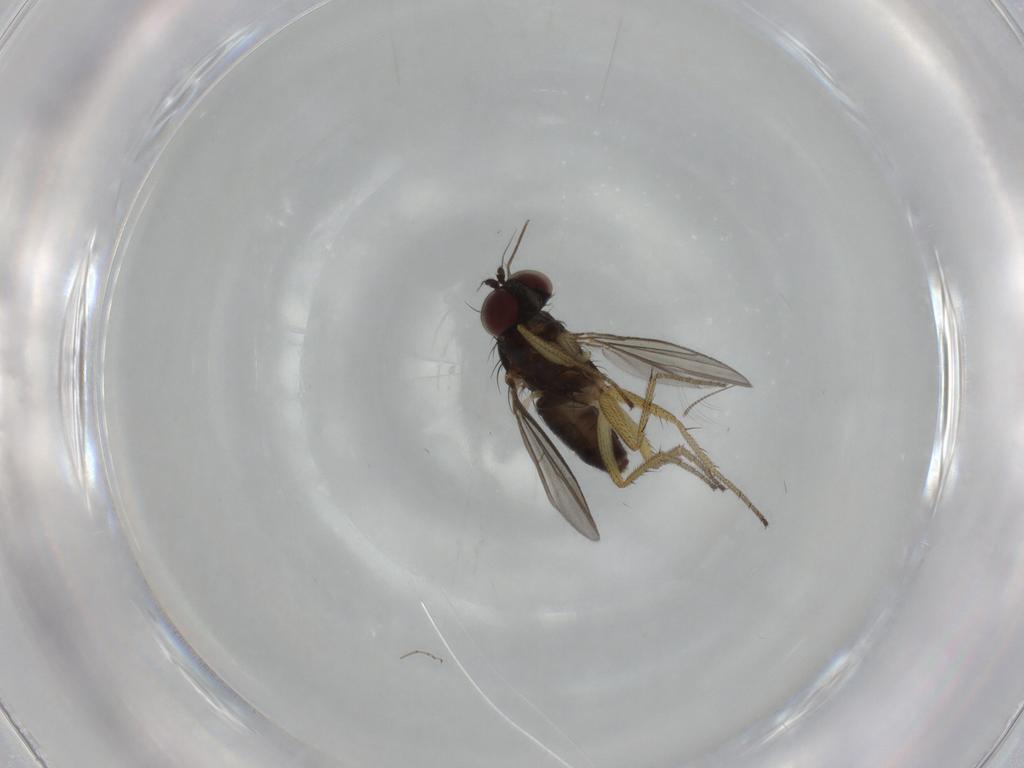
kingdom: Animalia
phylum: Arthropoda
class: Insecta
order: Diptera
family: Dolichopodidae
